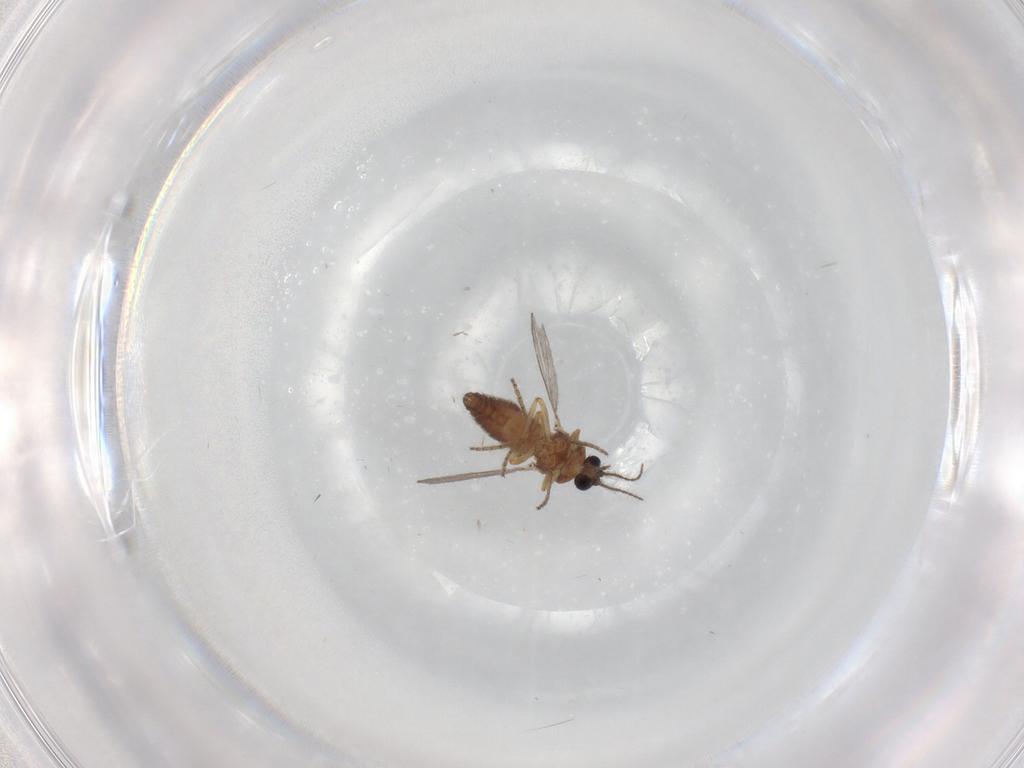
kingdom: Animalia
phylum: Arthropoda
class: Insecta
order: Diptera
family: Ceratopogonidae
